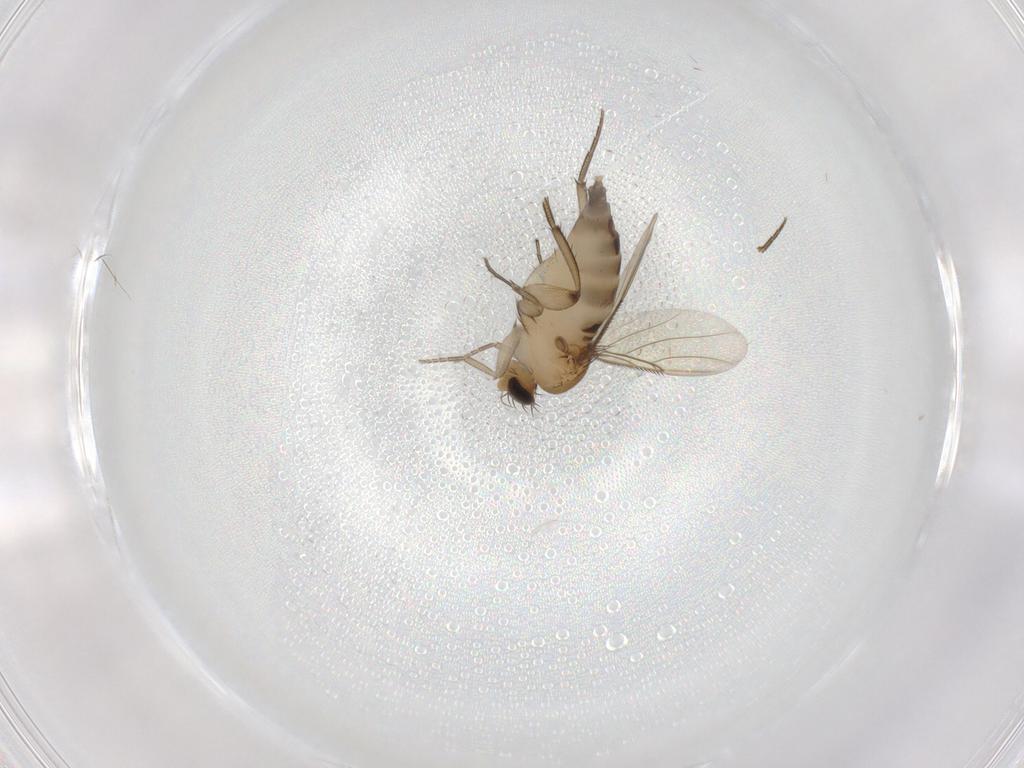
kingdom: Animalia
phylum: Arthropoda
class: Insecta
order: Diptera
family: Phoridae
